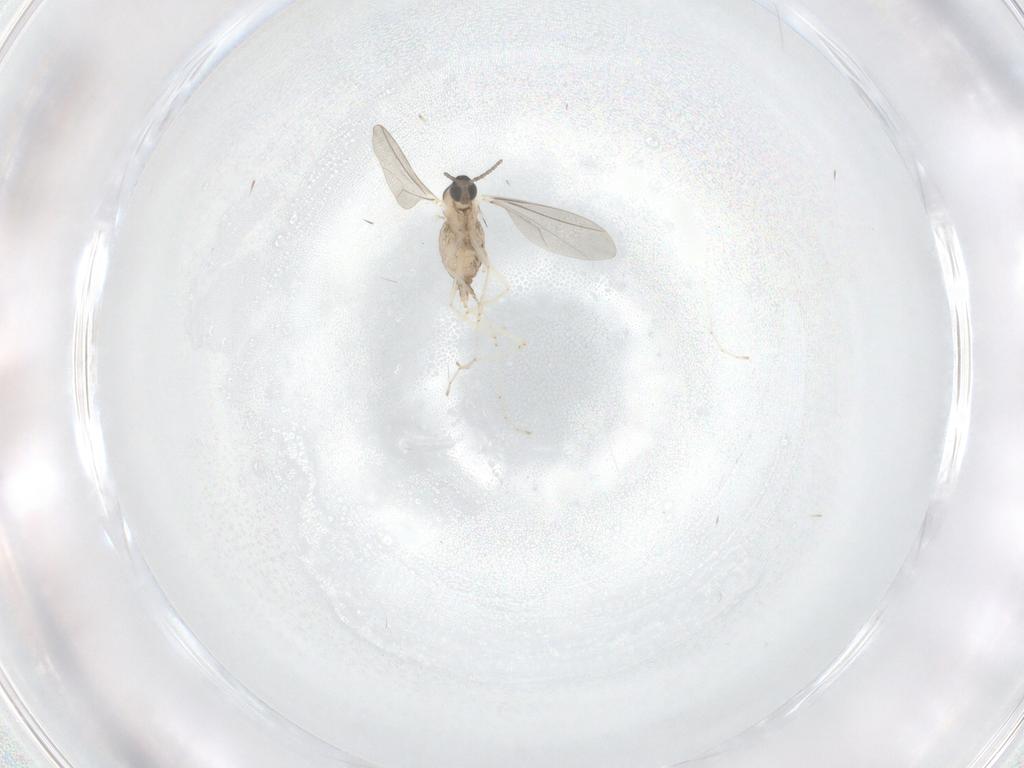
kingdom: Animalia
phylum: Arthropoda
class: Insecta
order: Diptera
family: Cecidomyiidae
